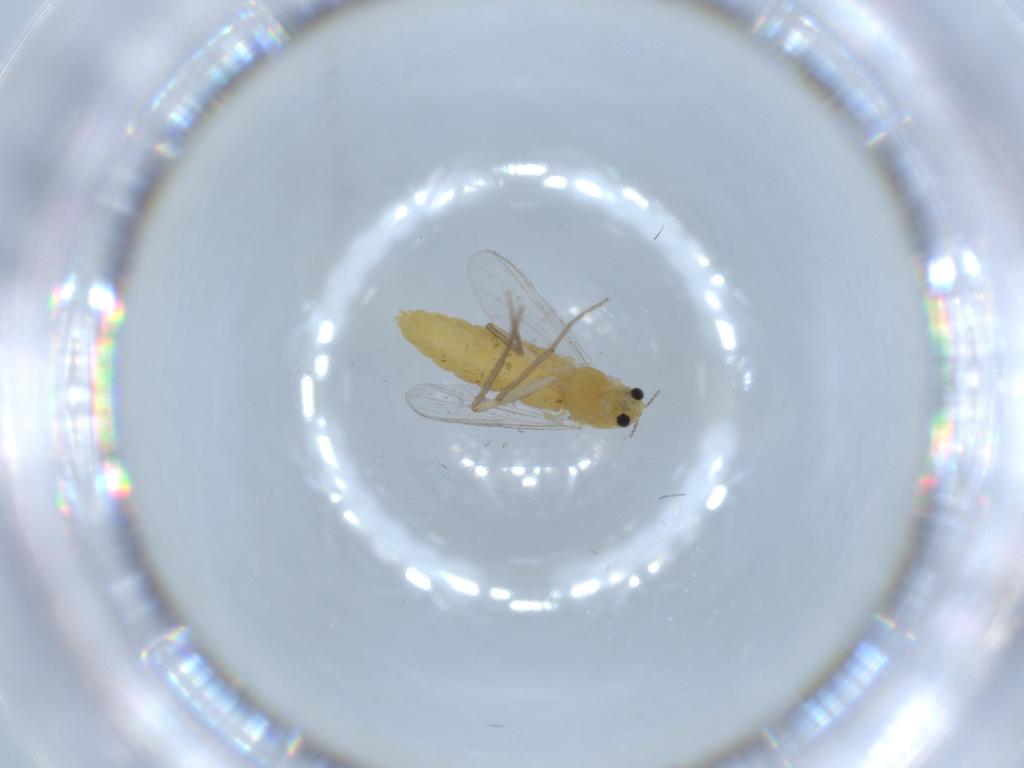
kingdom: Animalia
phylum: Arthropoda
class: Insecta
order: Diptera
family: Chironomidae
